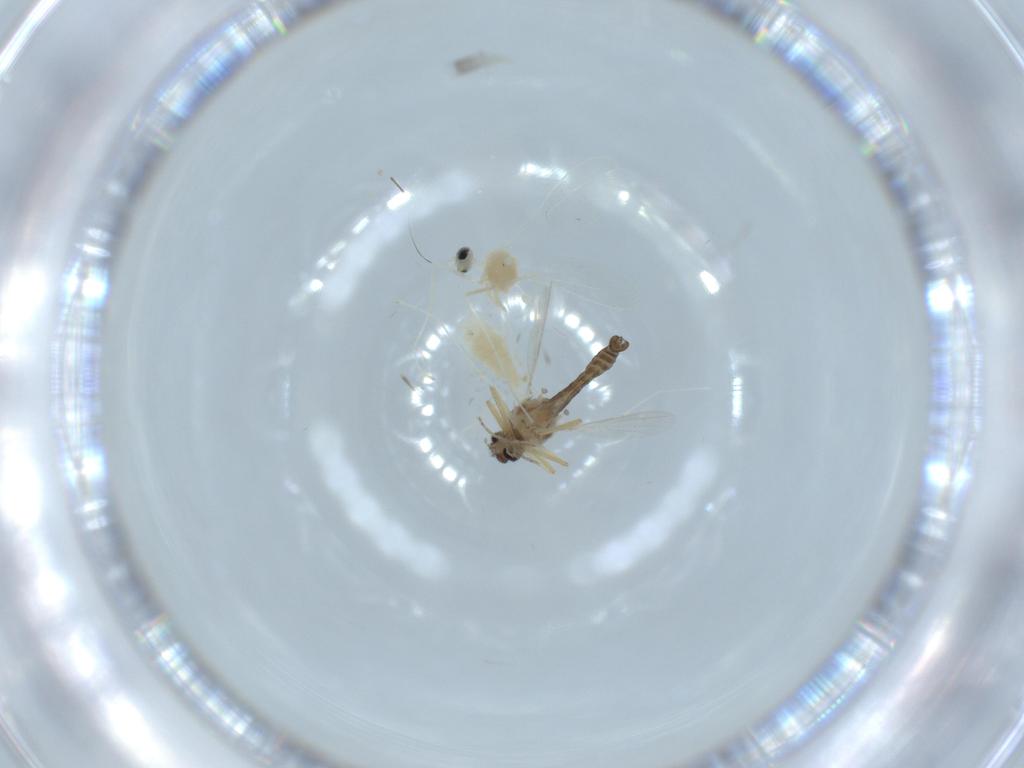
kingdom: Animalia
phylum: Arthropoda
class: Insecta
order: Diptera
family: Ceratopogonidae
